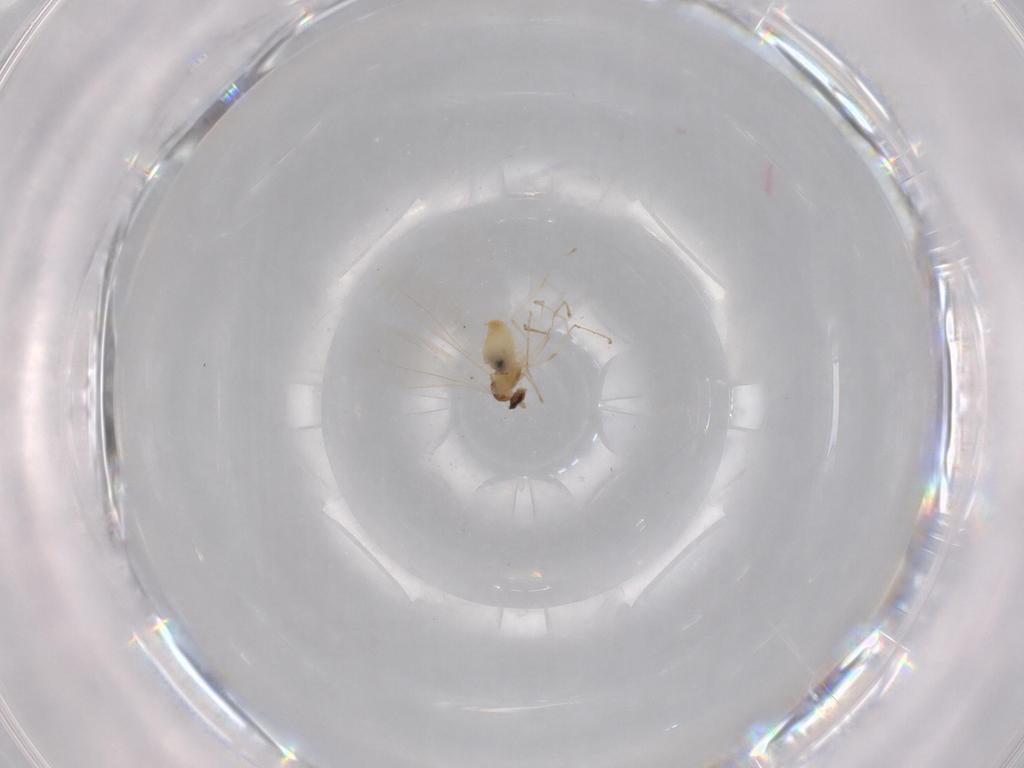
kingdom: Animalia
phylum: Arthropoda
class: Insecta
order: Diptera
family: Cecidomyiidae
